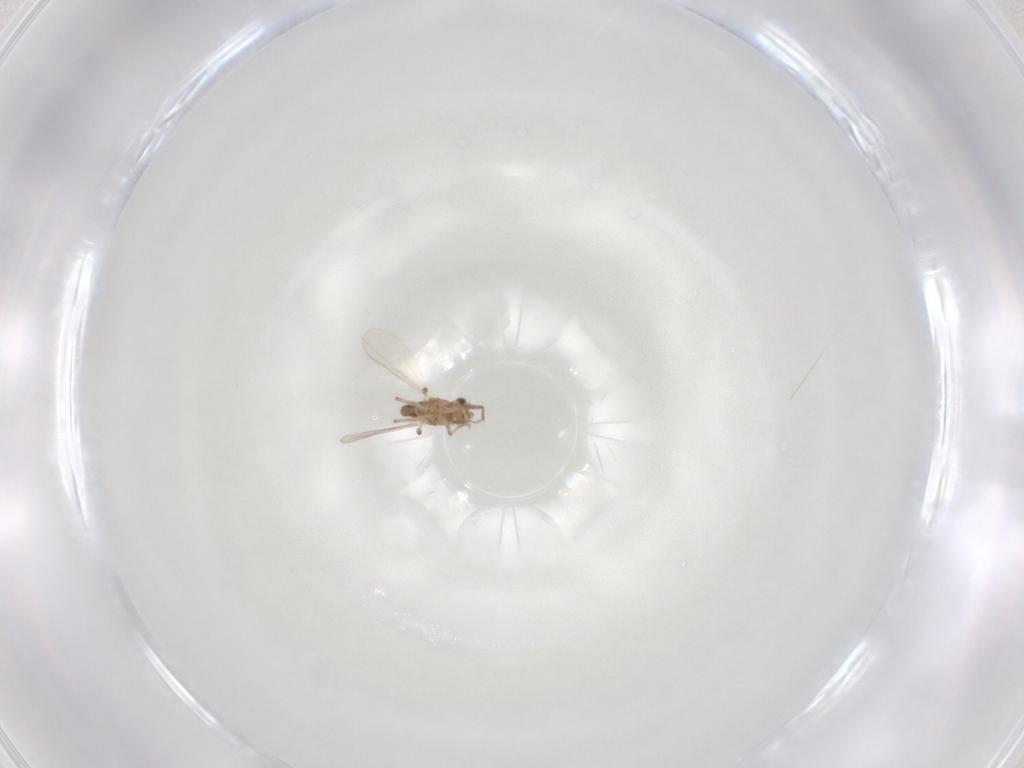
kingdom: Animalia
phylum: Arthropoda
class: Insecta
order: Diptera
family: Chironomidae
